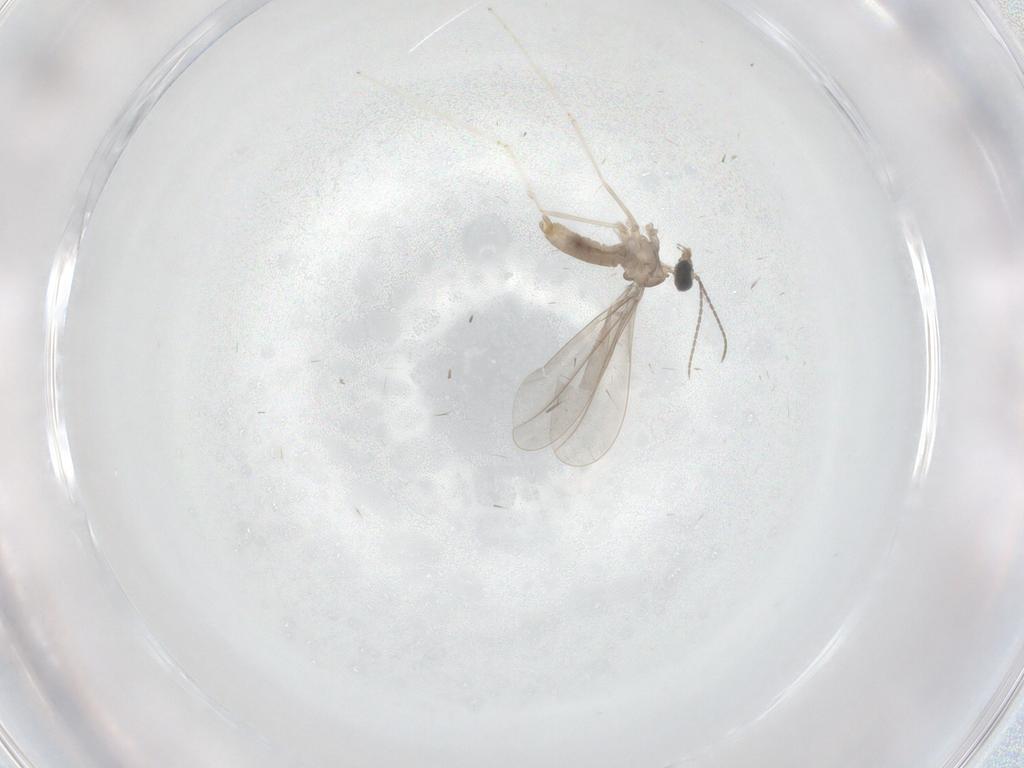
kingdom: Animalia
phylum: Arthropoda
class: Insecta
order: Diptera
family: Cecidomyiidae
